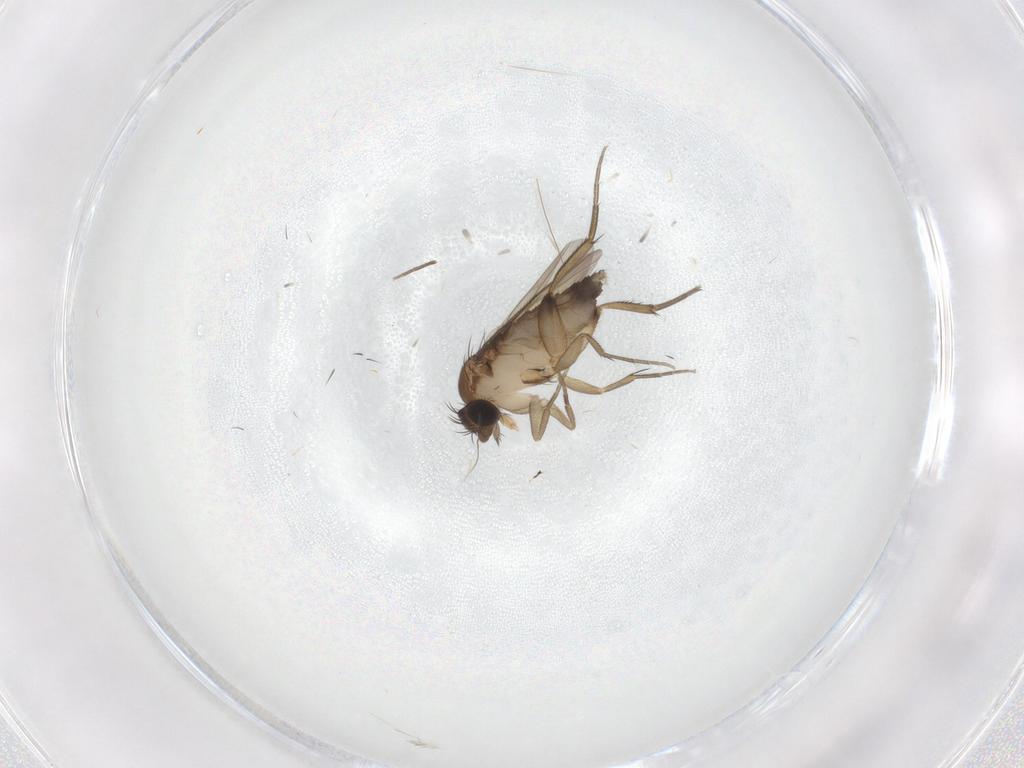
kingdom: Animalia
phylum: Arthropoda
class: Insecta
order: Diptera
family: Phoridae
